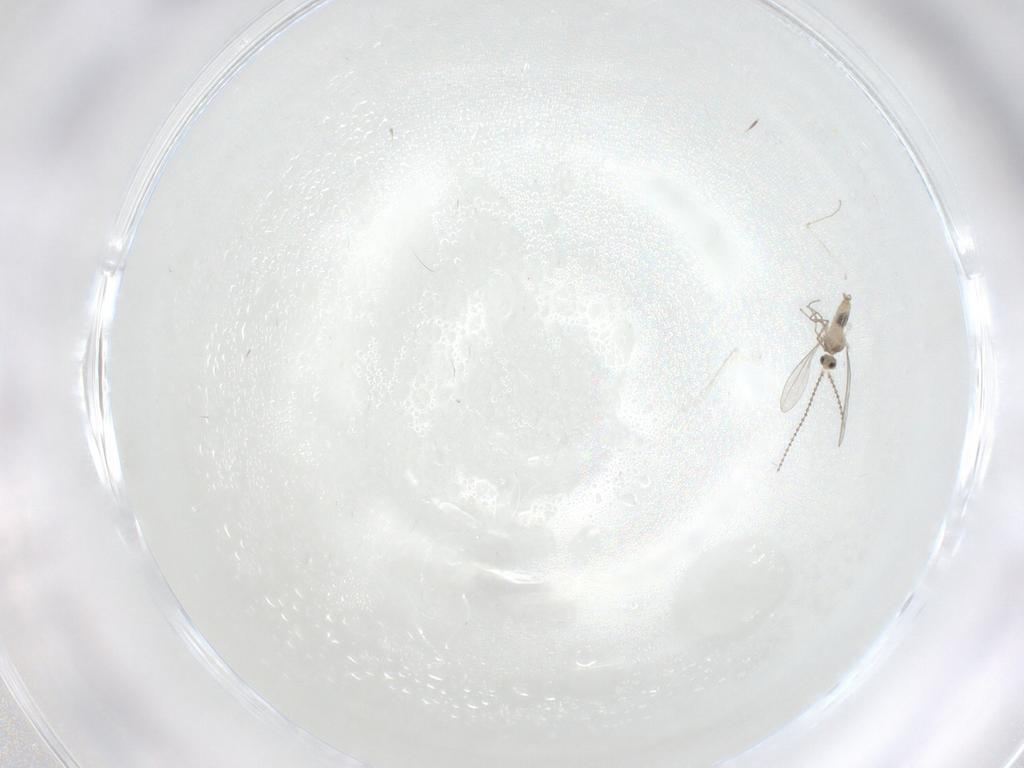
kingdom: Animalia
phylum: Arthropoda
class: Insecta
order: Diptera
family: Cecidomyiidae
